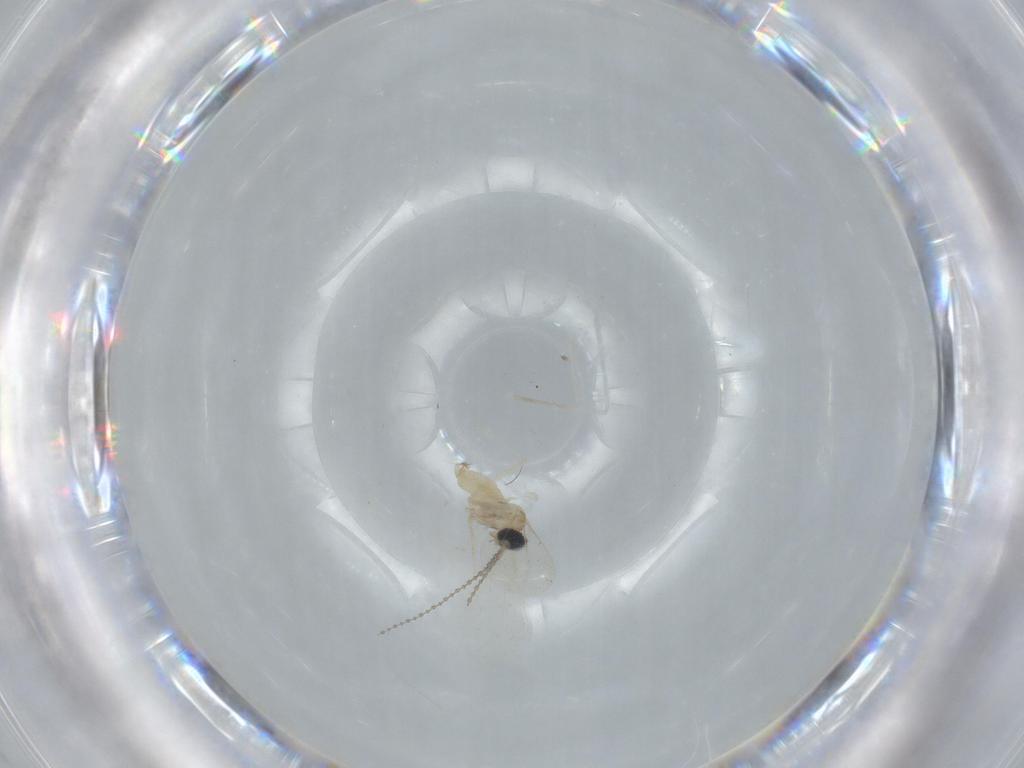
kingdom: Animalia
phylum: Arthropoda
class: Insecta
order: Diptera
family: Cecidomyiidae
